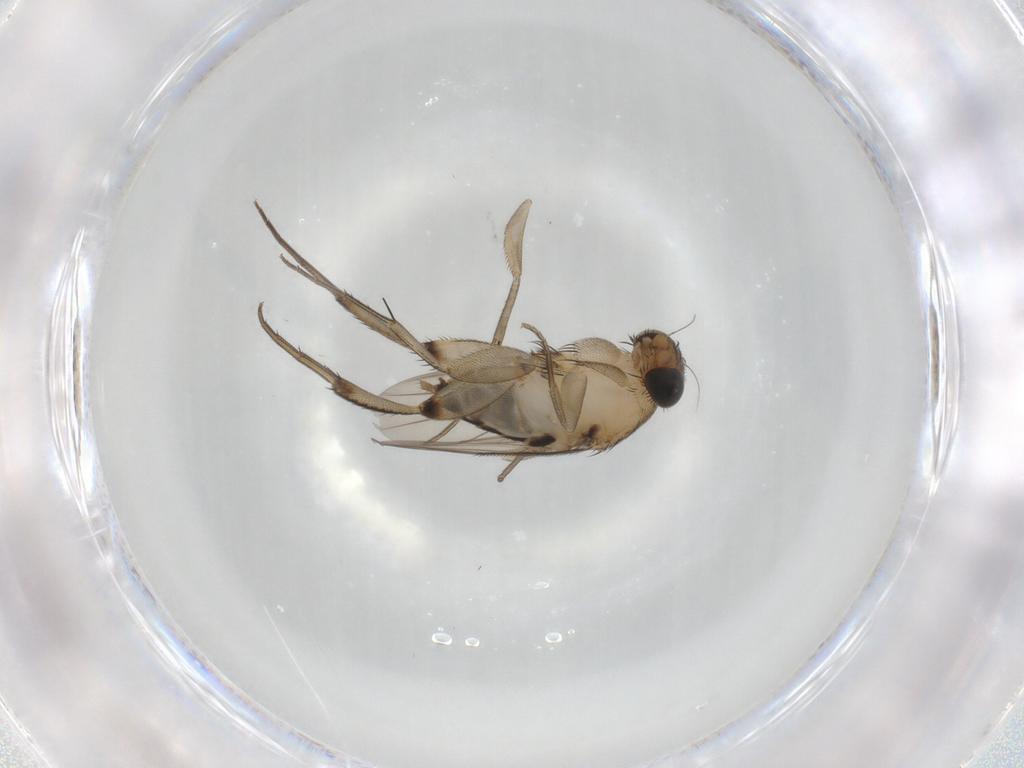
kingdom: Animalia
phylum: Arthropoda
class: Insecta
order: Diptera
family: Phoridae
